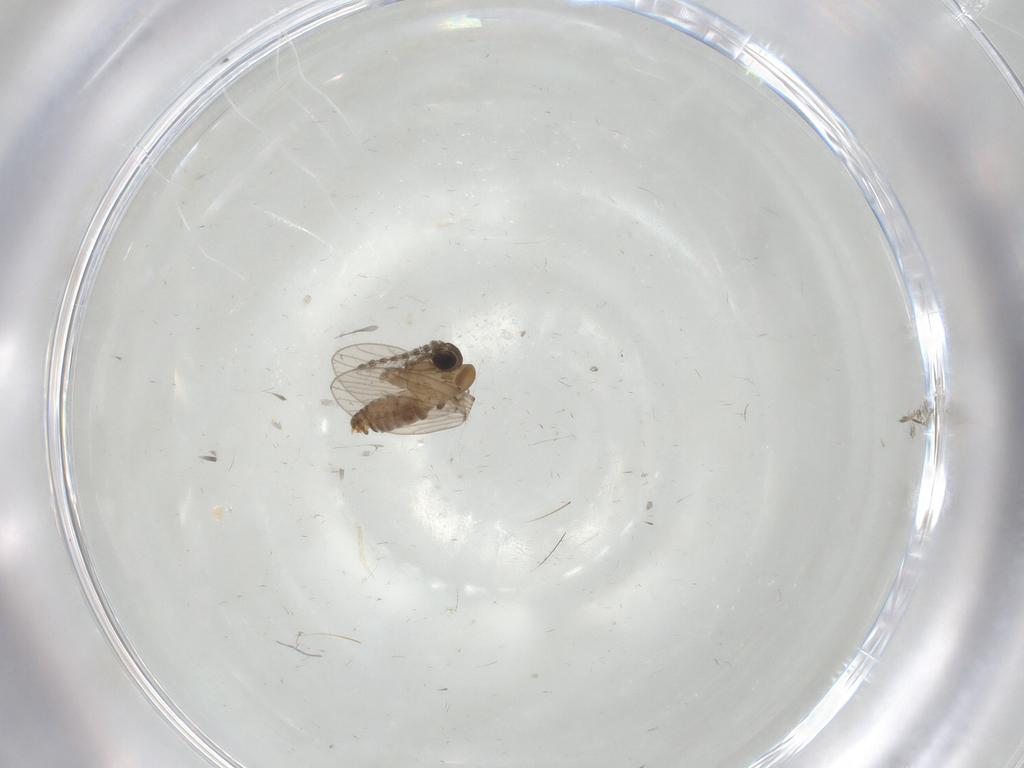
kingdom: Animalia
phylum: Arthropoda
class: Insecta
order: Diptera
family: Psychodidae
